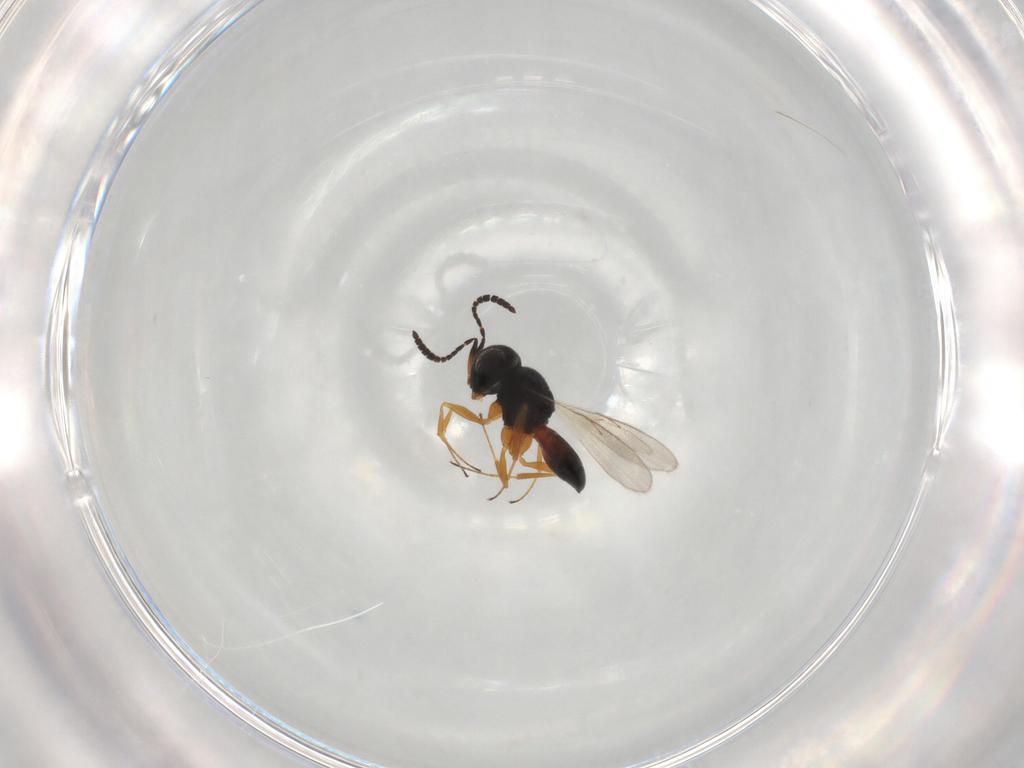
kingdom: Animalia
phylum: Arthropoda
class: Insecta
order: Hymenoptera
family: Scelionidae
